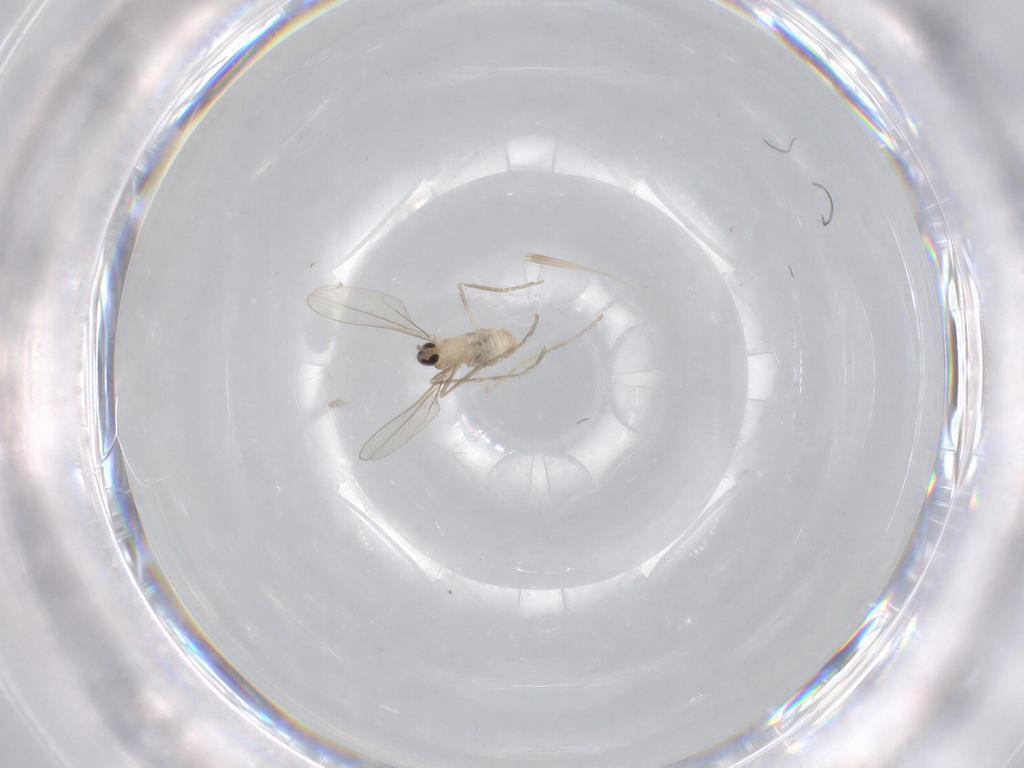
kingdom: Animalia
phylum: Arthropoda
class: Insecta
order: Diptera
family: Cecidomyiidae
